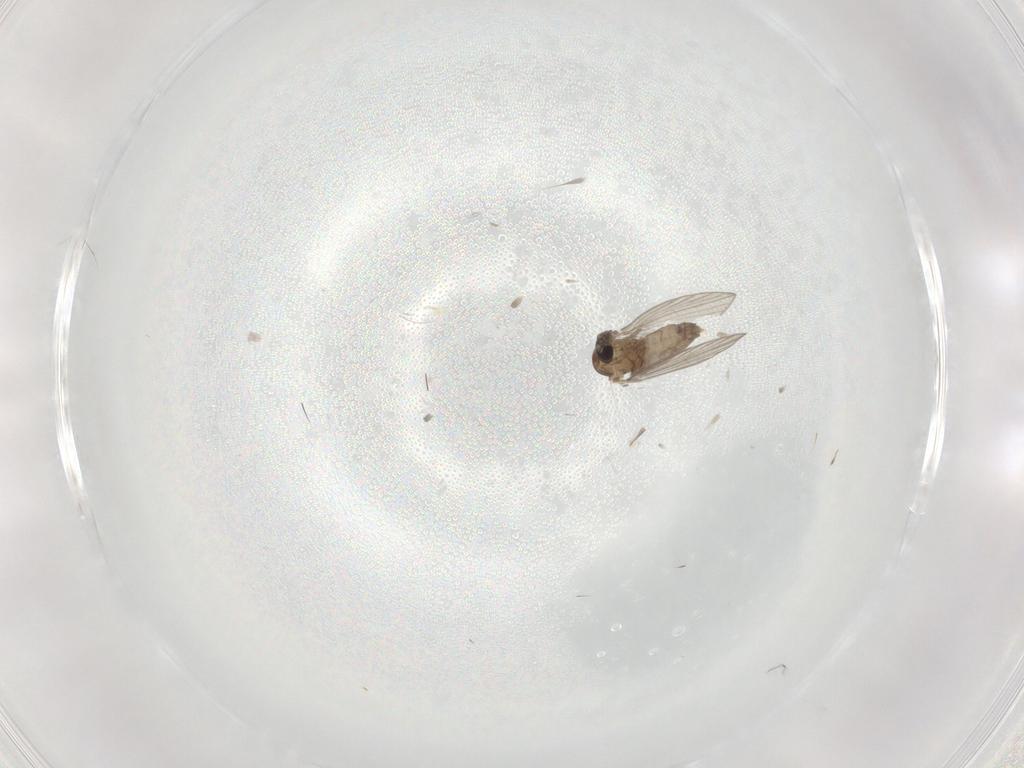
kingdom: Animalia
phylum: Arthropoda
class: Insecta
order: Diptera
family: Psychodidae
